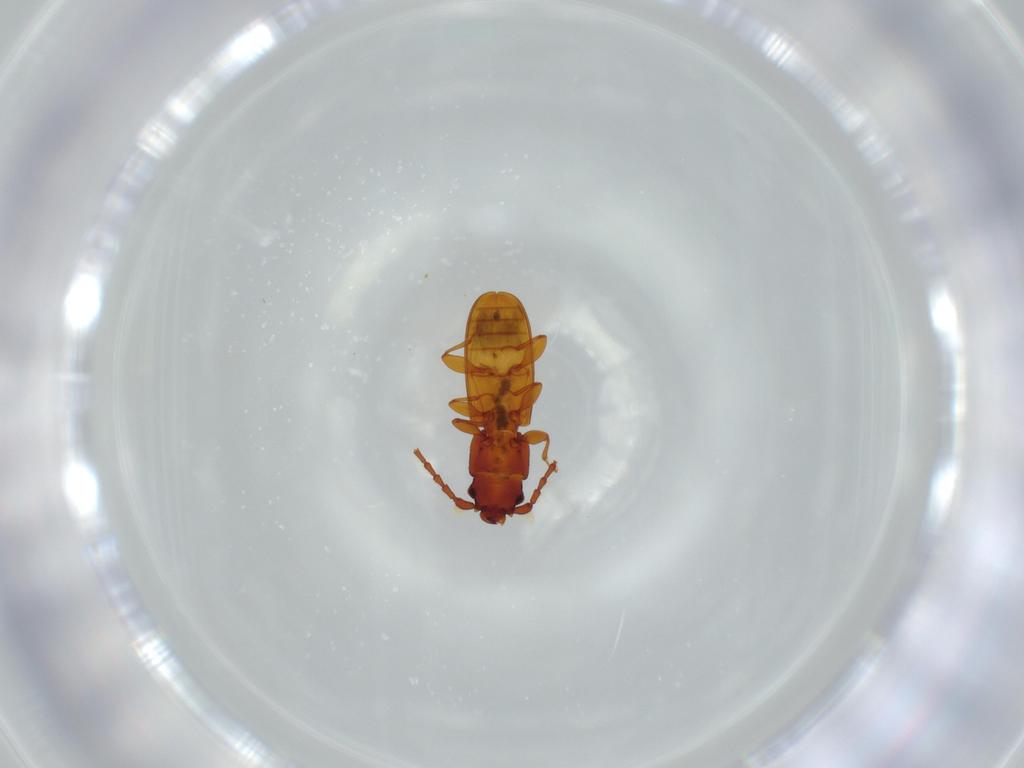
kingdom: Animalia
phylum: Arthropoda
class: Insecta
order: Coleoptera
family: Laemophloeidae
